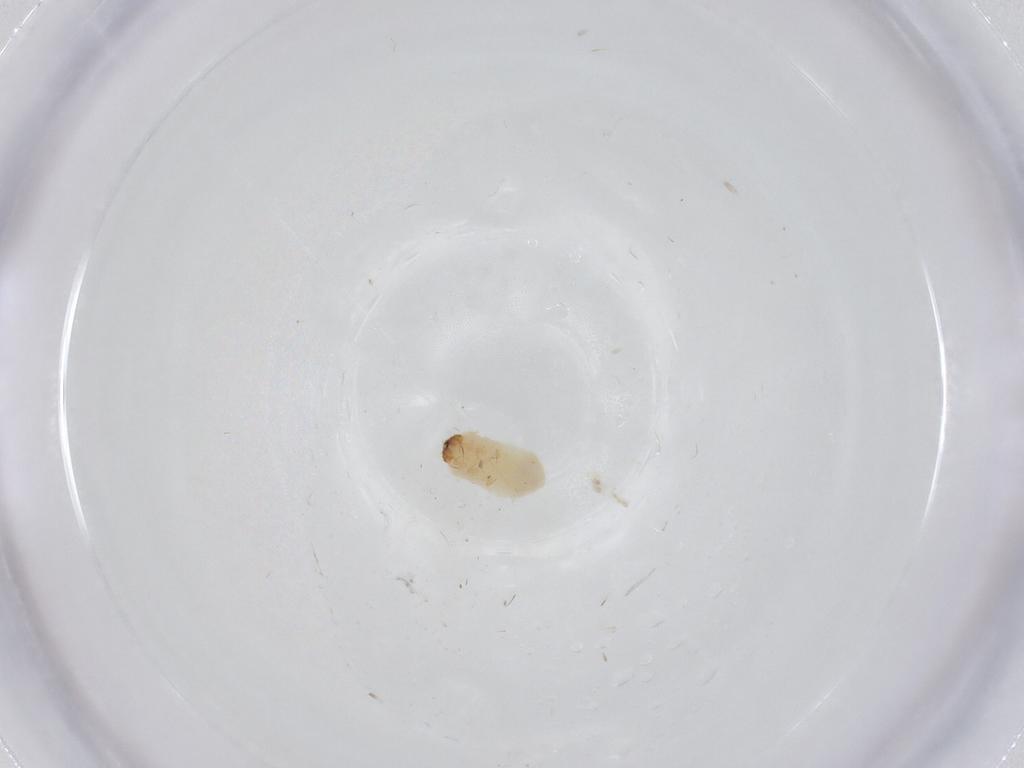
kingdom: Animalia
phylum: Arthropoda
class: Insecta
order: Coleoptera
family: Bostrichidae
